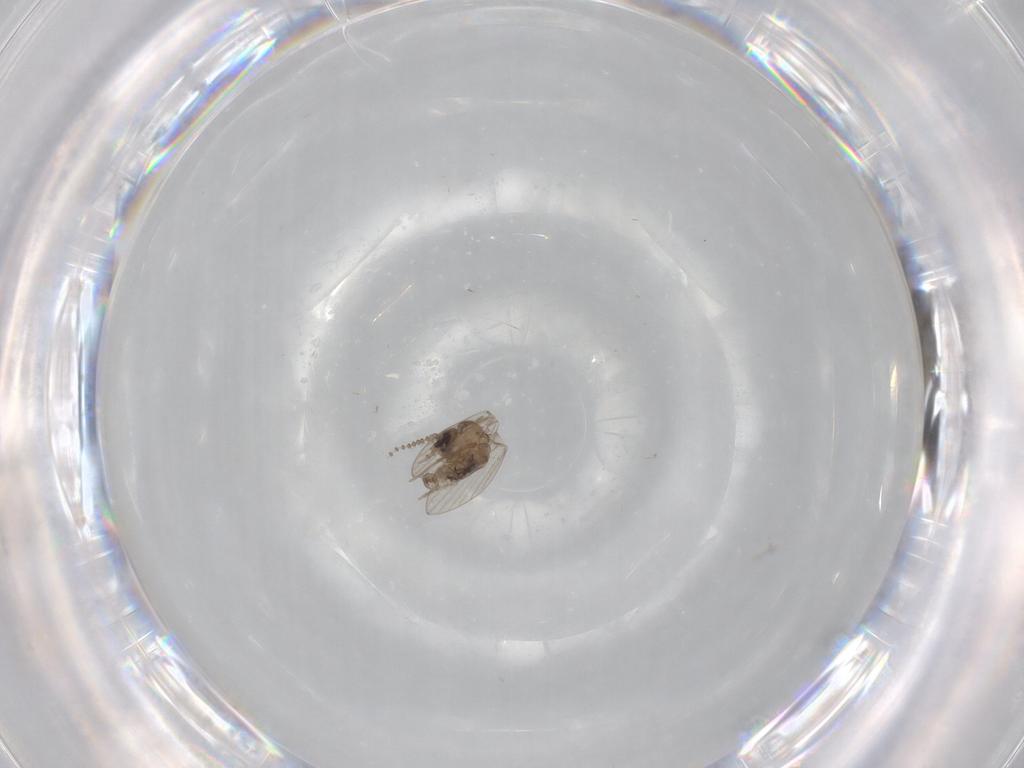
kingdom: Animalia
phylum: Arthropoda
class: Insecta
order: Diptera
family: Psychodidae
